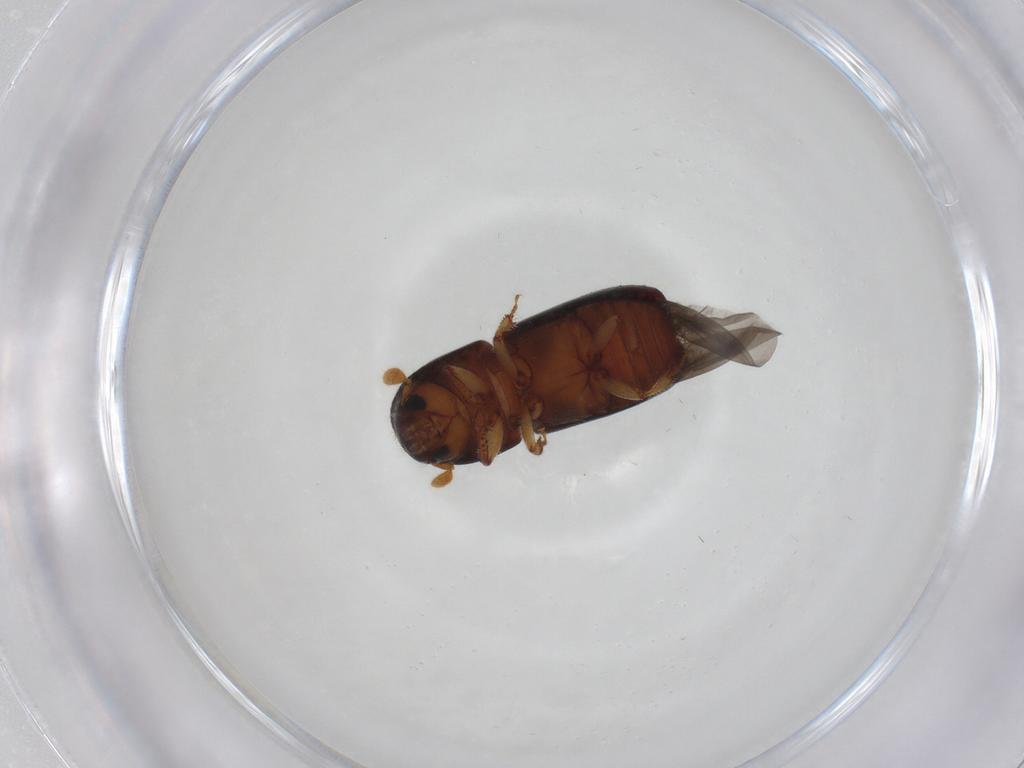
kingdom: Animalia
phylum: Arthropoda
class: Insecta
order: Coleoptera
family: Curculionidae
